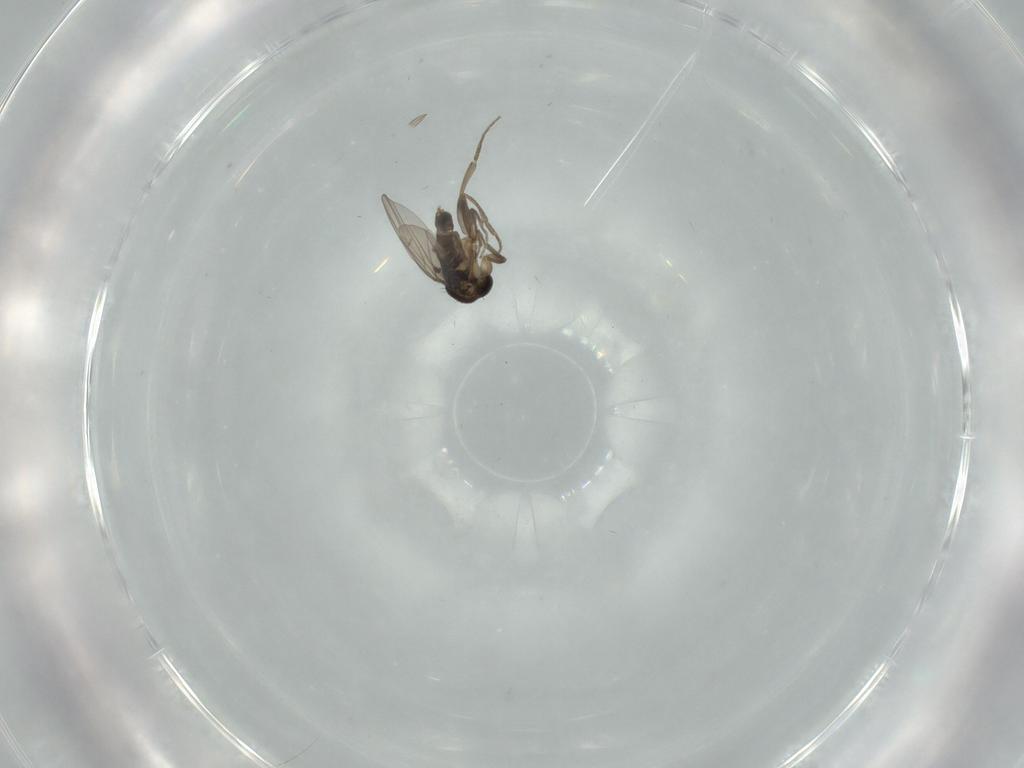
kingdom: Animalia
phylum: Arthropoda
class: Insecta
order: Diptera
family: Phoridae
